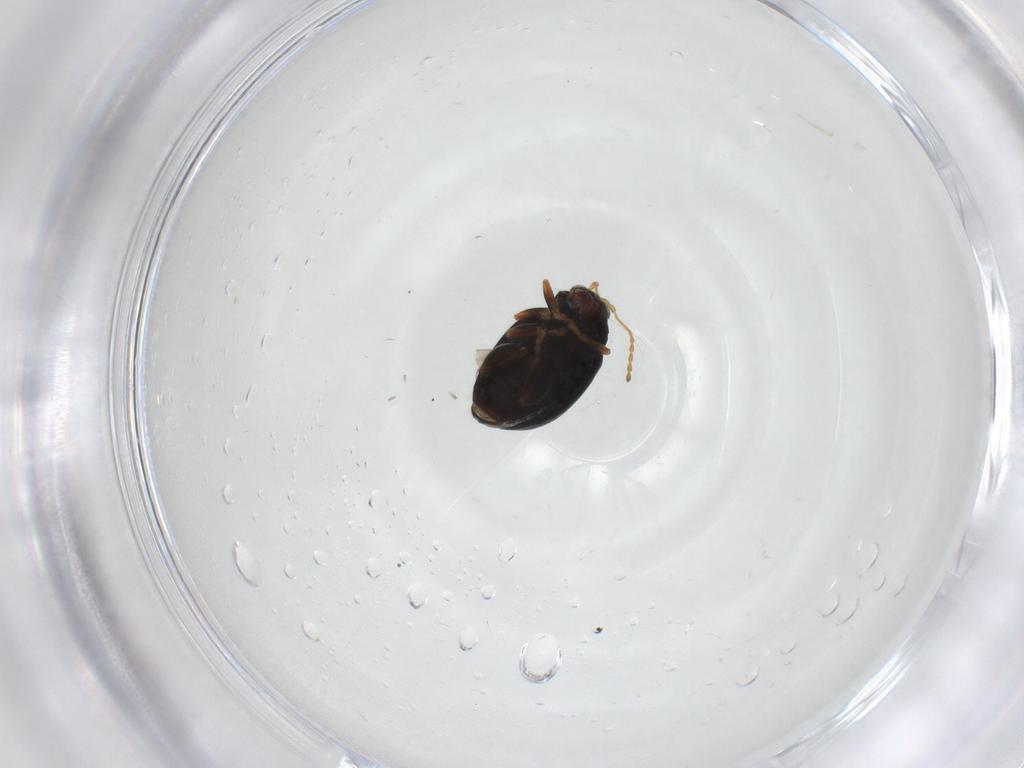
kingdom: Animalia
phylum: Arthropoda
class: Insecta
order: Coleoptera
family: Chrysomelidae
